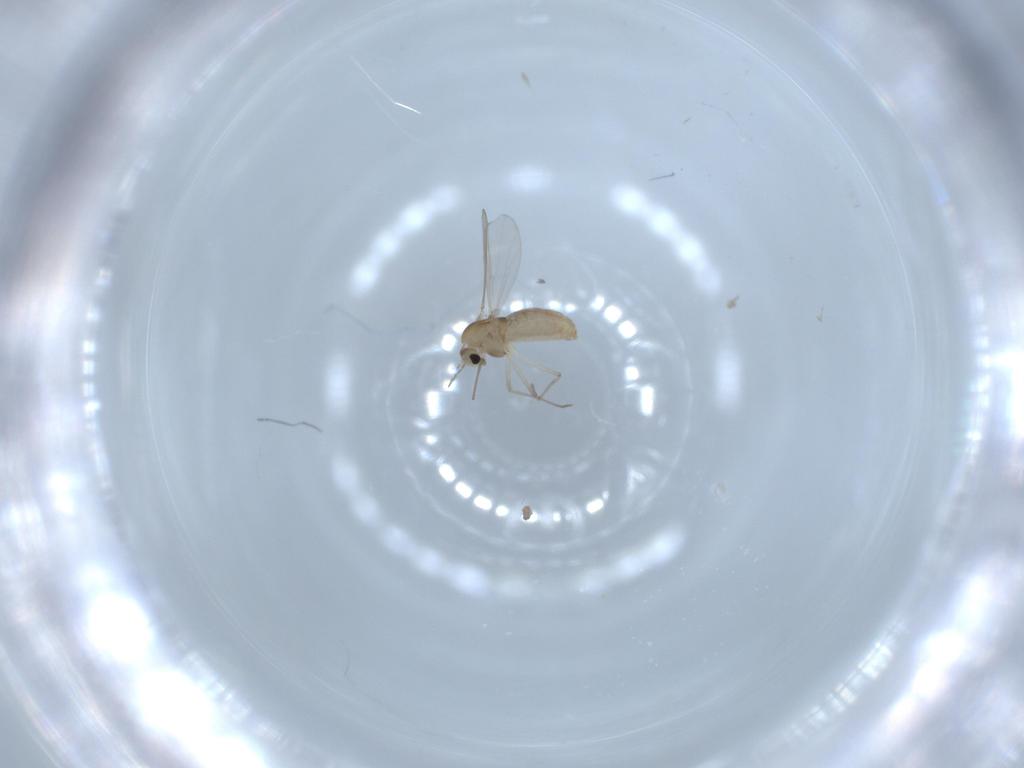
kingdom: Animalia
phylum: Arthropoda
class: Insecta
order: Diptera
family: Chironomidae
